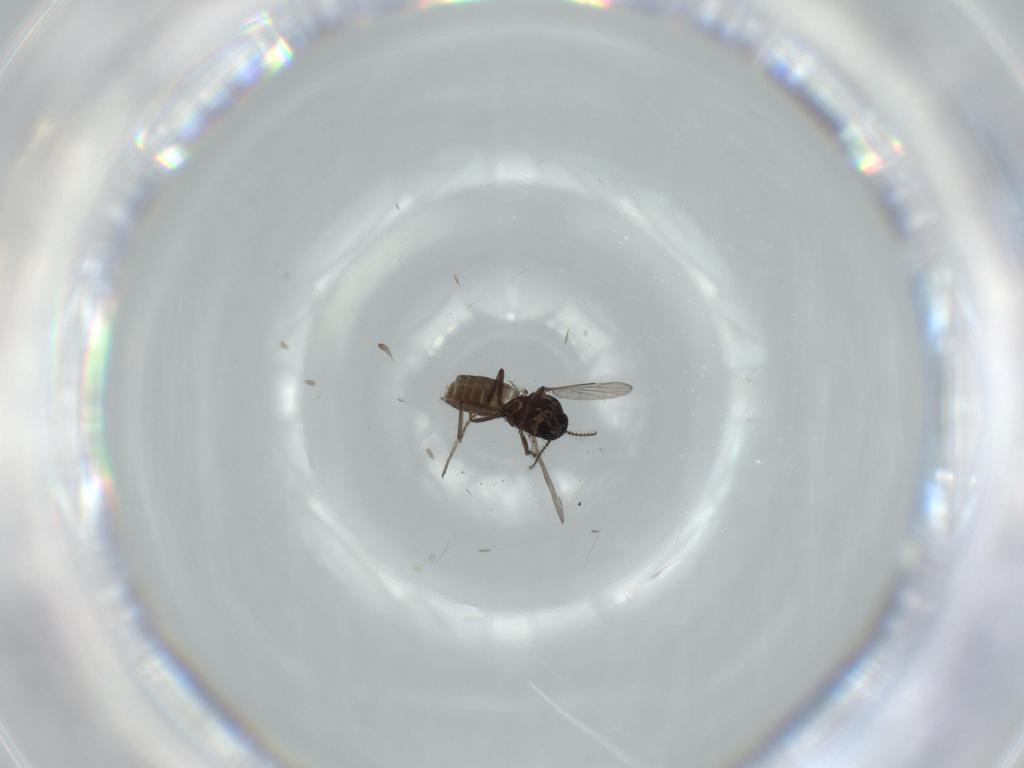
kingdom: Animalia
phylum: Arthropoda
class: Insecta
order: Diptera
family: Ceratopogonidae
